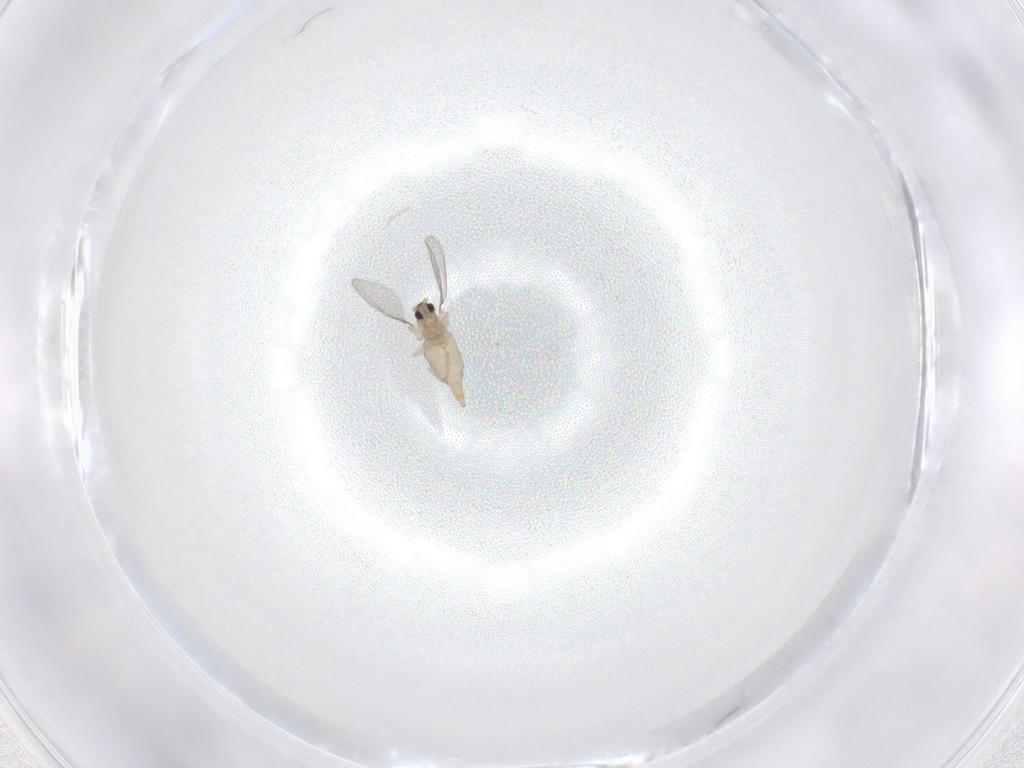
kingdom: Animalia
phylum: Arthropoda
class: Insecta
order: Diptera
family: Cecidomyiidae
